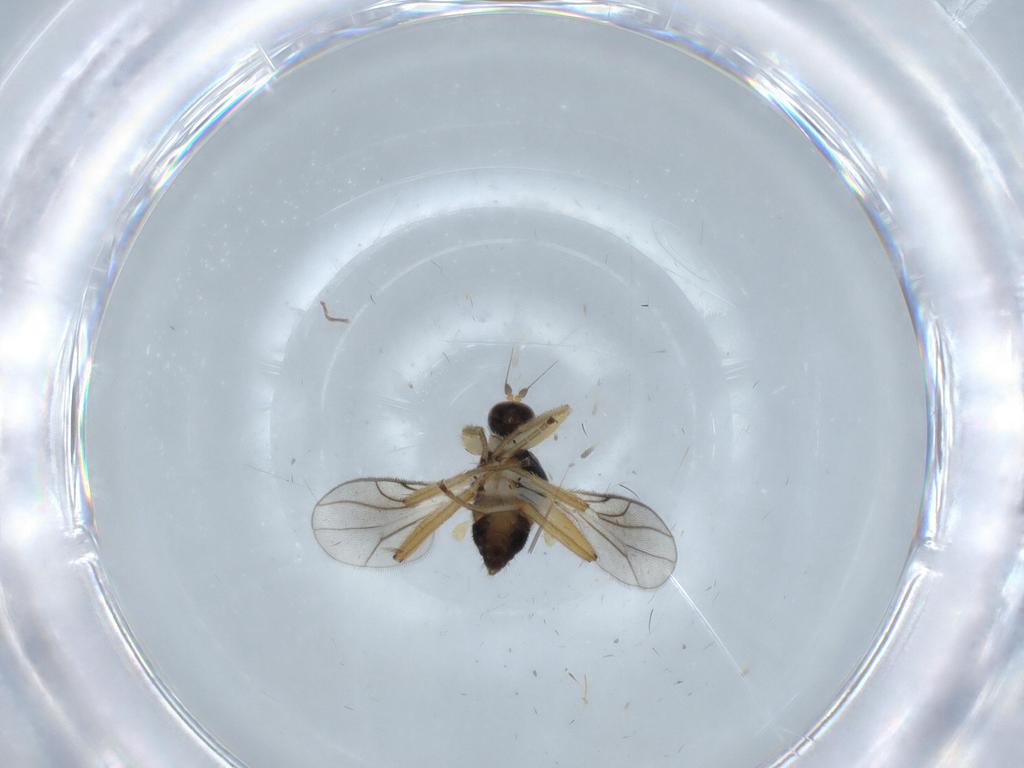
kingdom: Animalia
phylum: Arthropoda
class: Insecta
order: Diptera
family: Hybotidae
